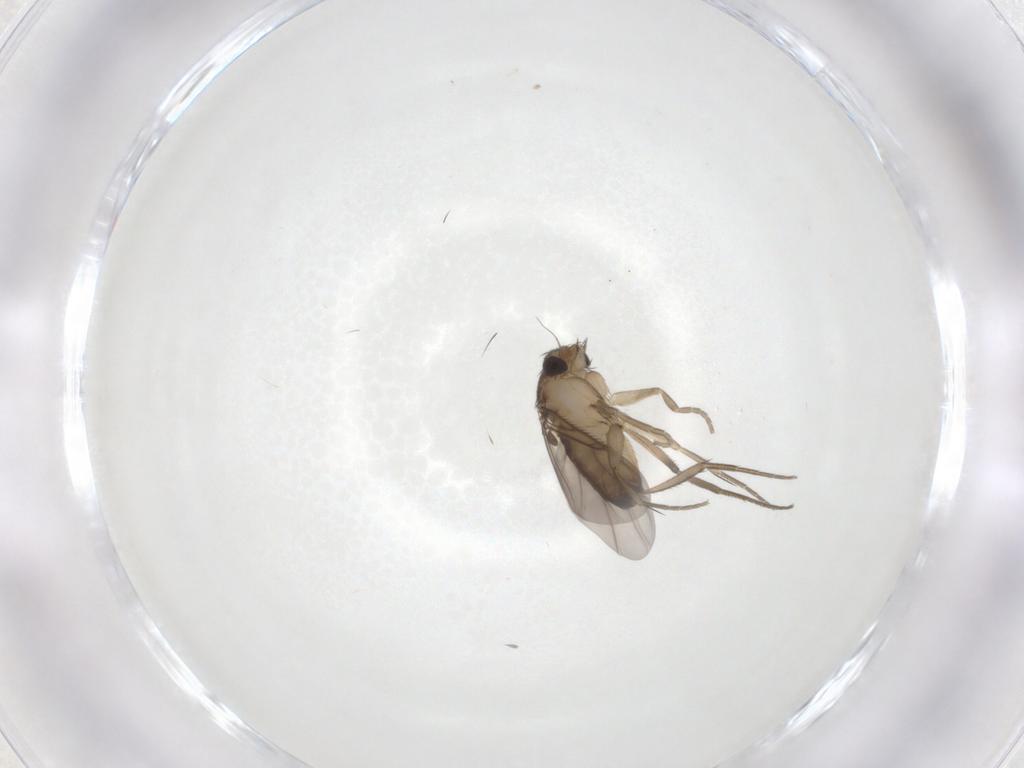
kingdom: Animalia
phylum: Arthropoda
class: Insecta
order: Diptera
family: Phoridae
